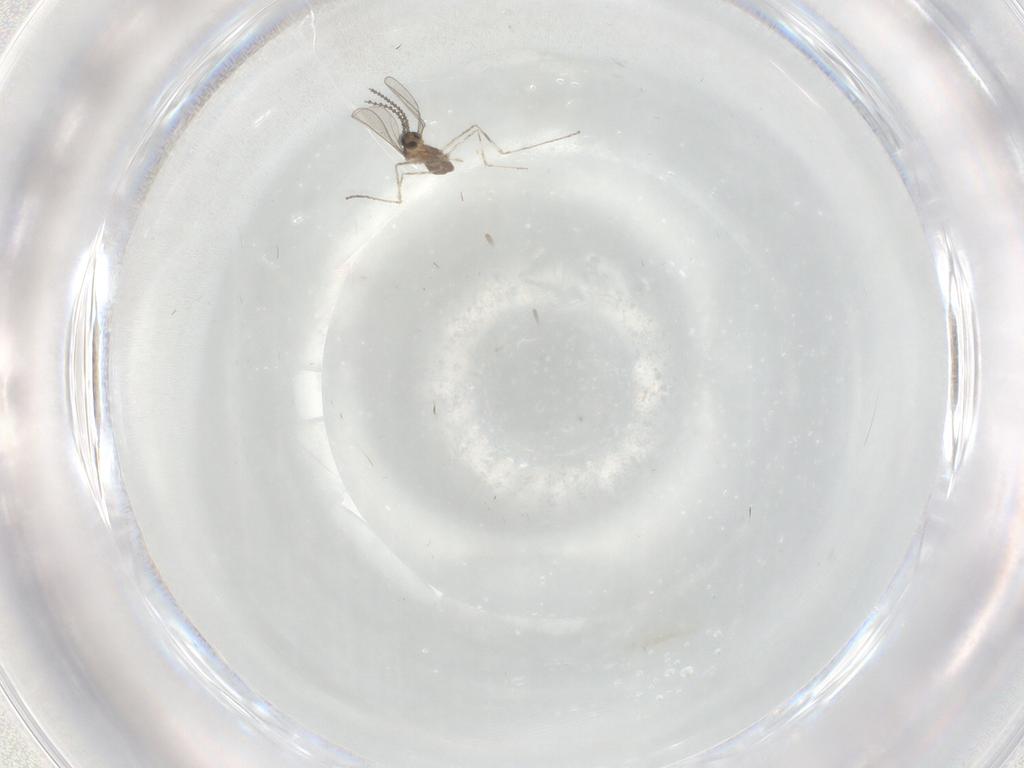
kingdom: Animalia
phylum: Arthropoda
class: Insecta
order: Diptera
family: Cecidomyiidae
